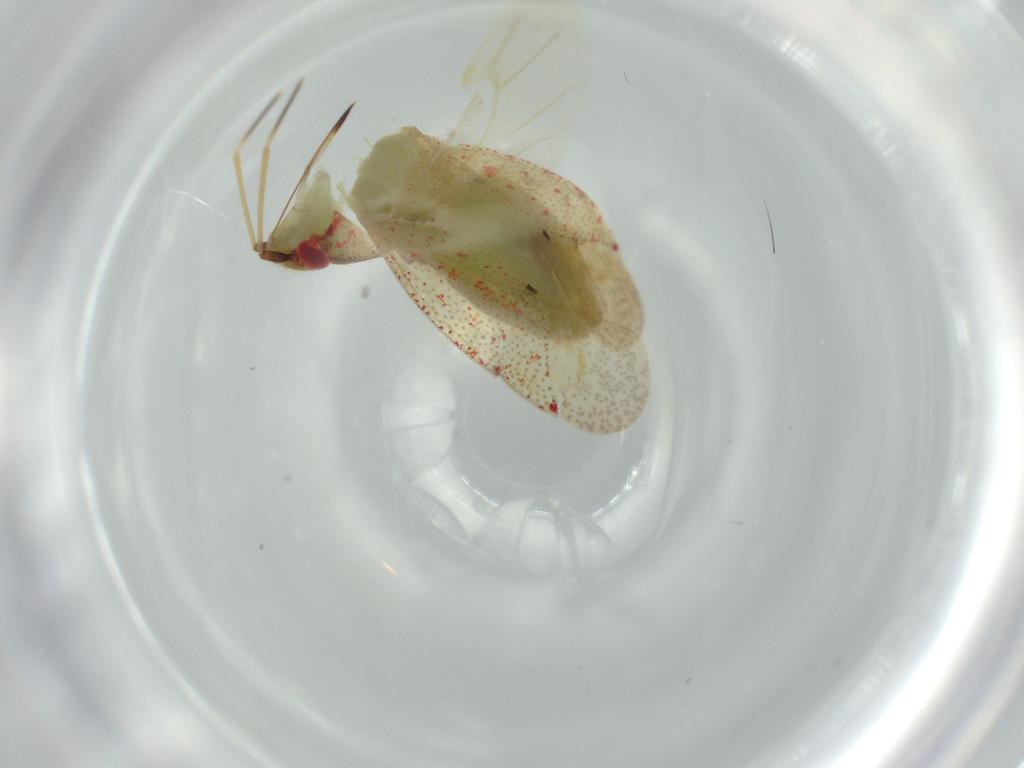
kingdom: Animalia
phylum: Arthropoda
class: Insecta
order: Hemiptera
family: Miridae
